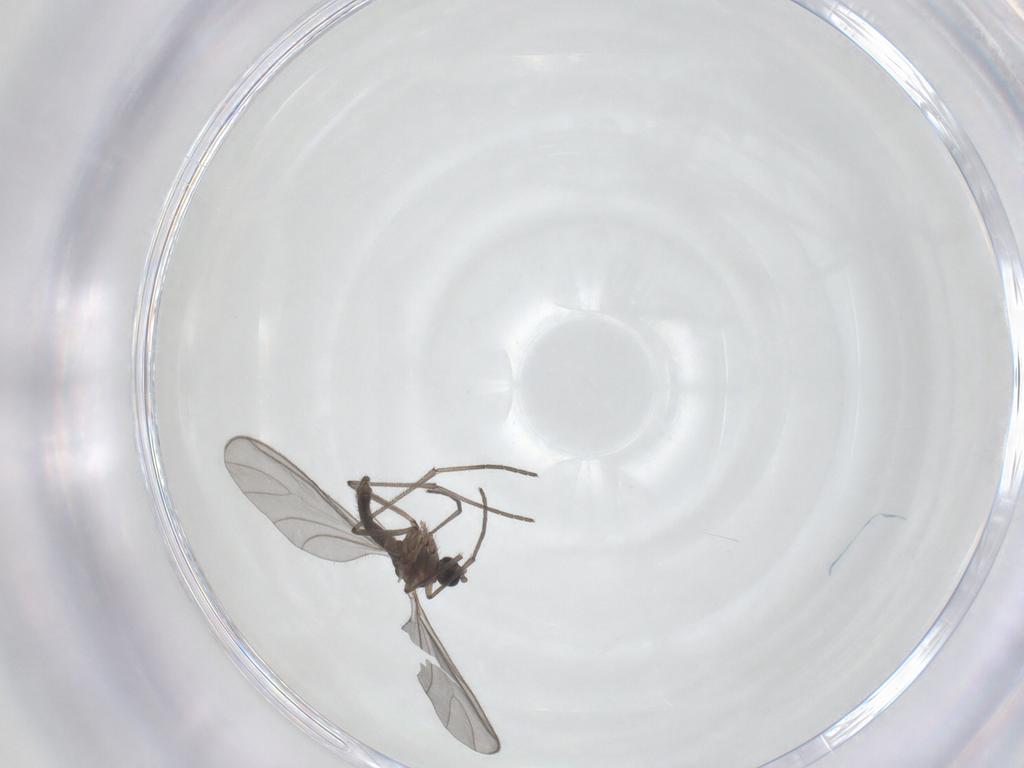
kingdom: Animalia
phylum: Arthropoda
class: Insecta
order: Diptera
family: Sciaridae
